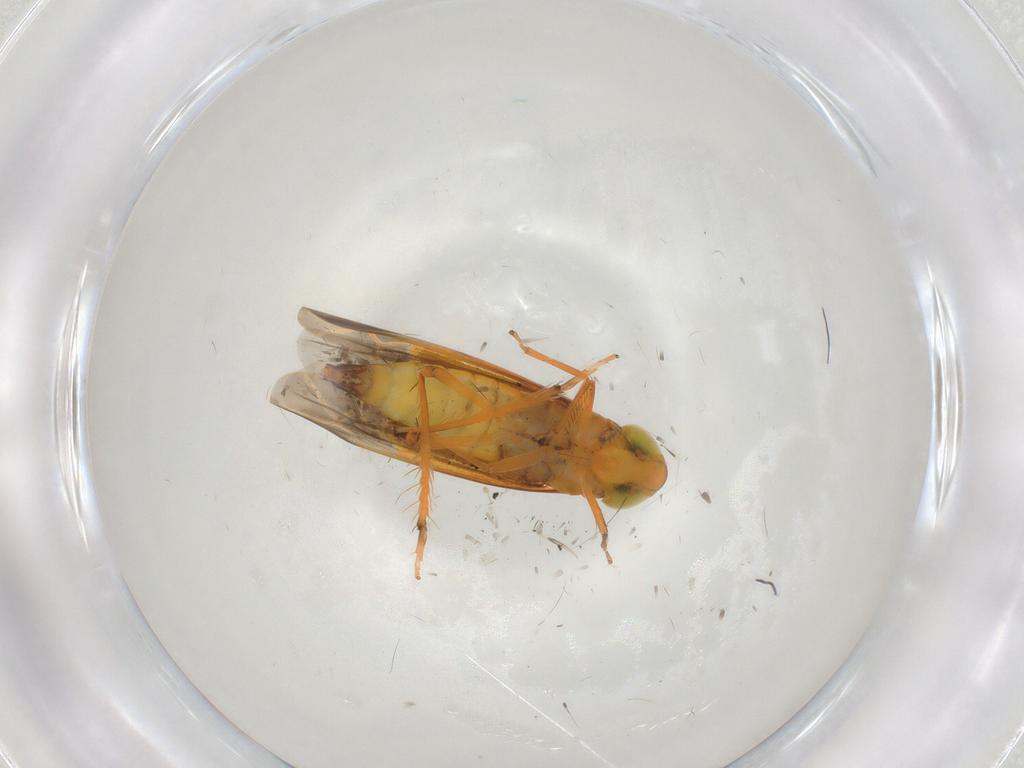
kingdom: Animalia
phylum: Arthropoda
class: Insecta
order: Hemiptera
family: Cicadellidae
